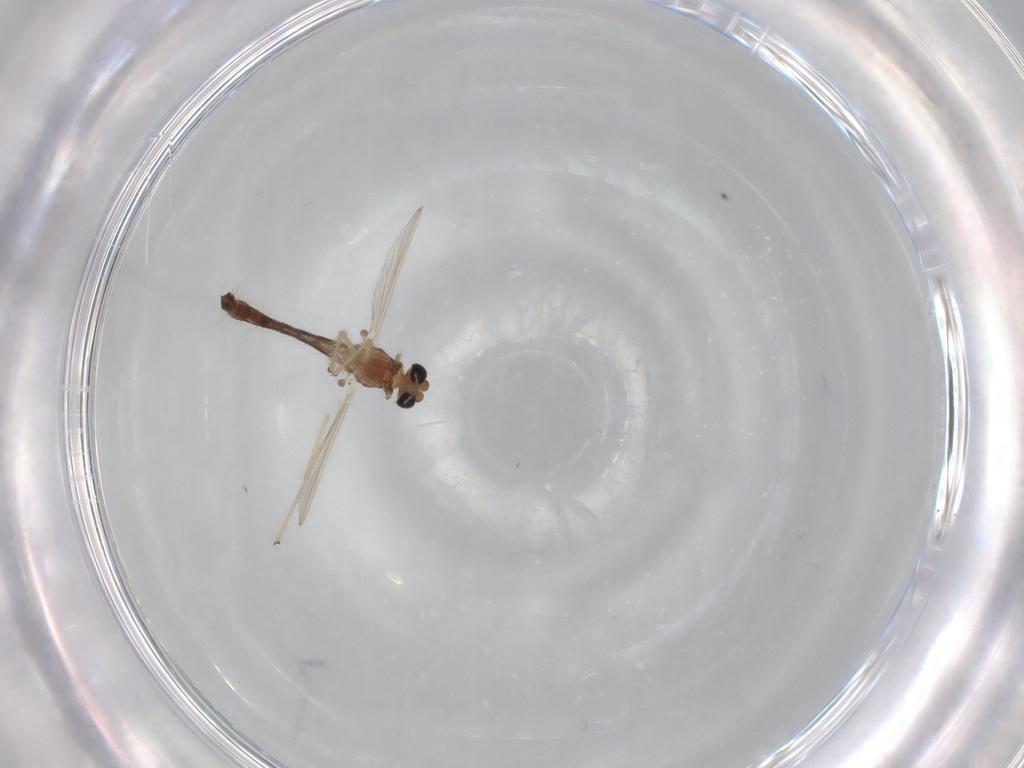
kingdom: Animalia
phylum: Arthropoda
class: Insecta
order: Diptera
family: Chironomidae
